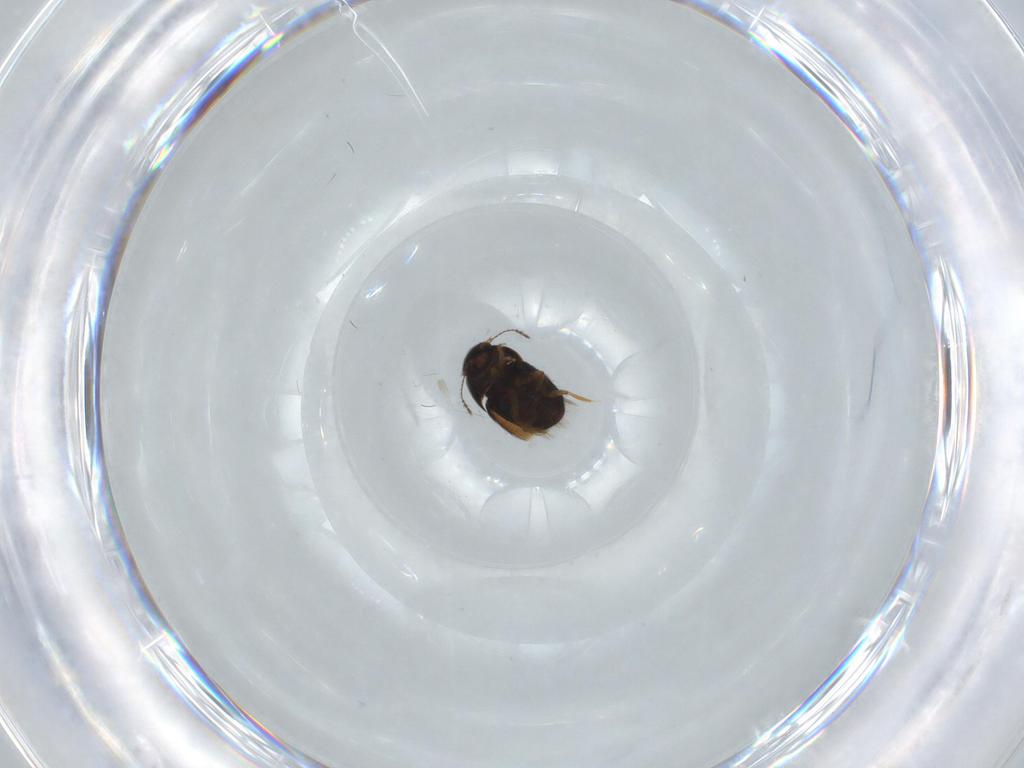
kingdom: Animalia
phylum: Arthropoda
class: Insecta
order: Coleoptera
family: Ptiliidae
